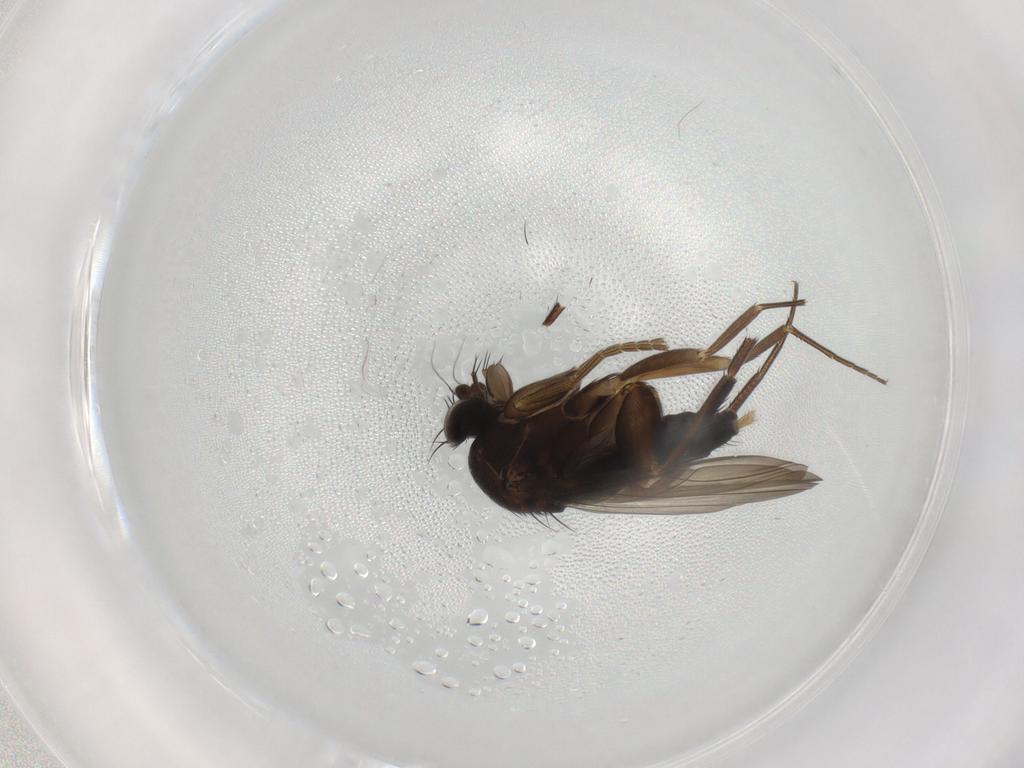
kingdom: Animalia
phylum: Arthropoda
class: Insecta
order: Diptera
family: Phoridae
